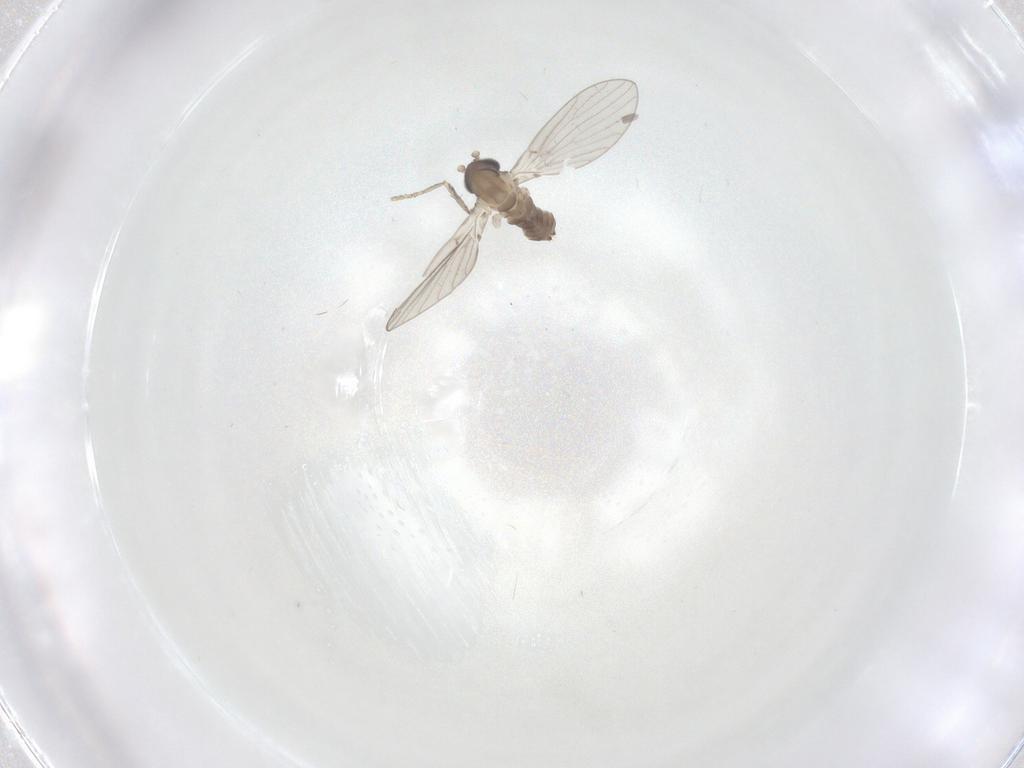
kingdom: Animalia
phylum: Arthropoda
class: Insecta
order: Diptera
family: Psychodidae
